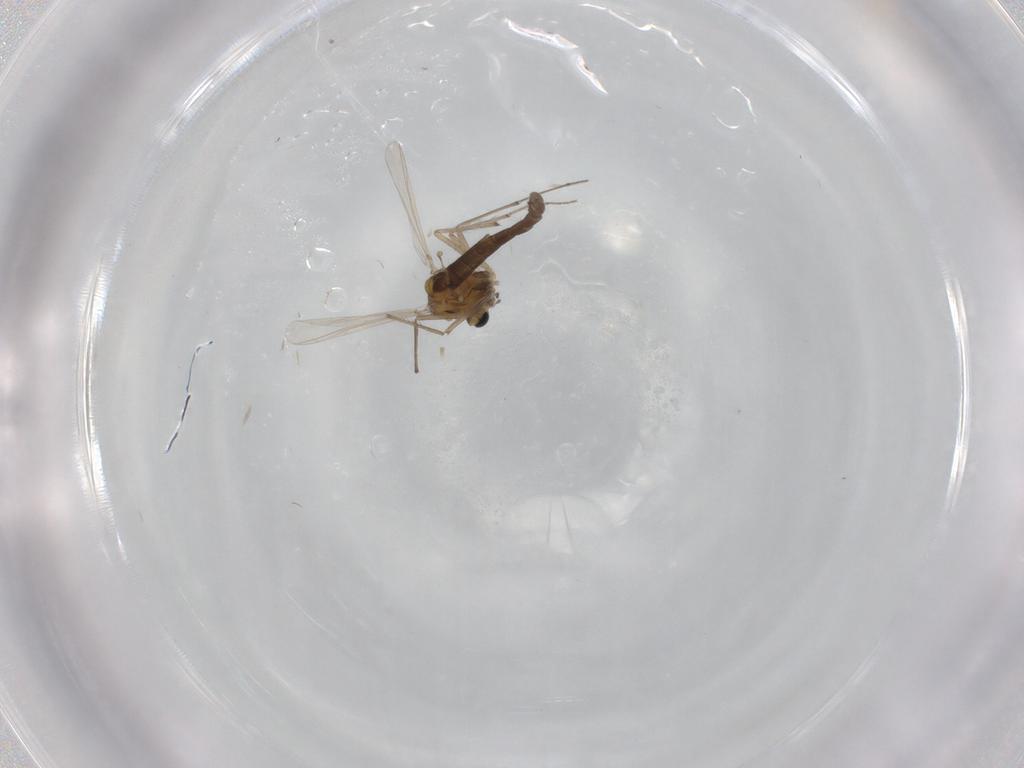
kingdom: Animalia
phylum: Arthropoda
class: Insecta
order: Diptera
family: Chironomidae
